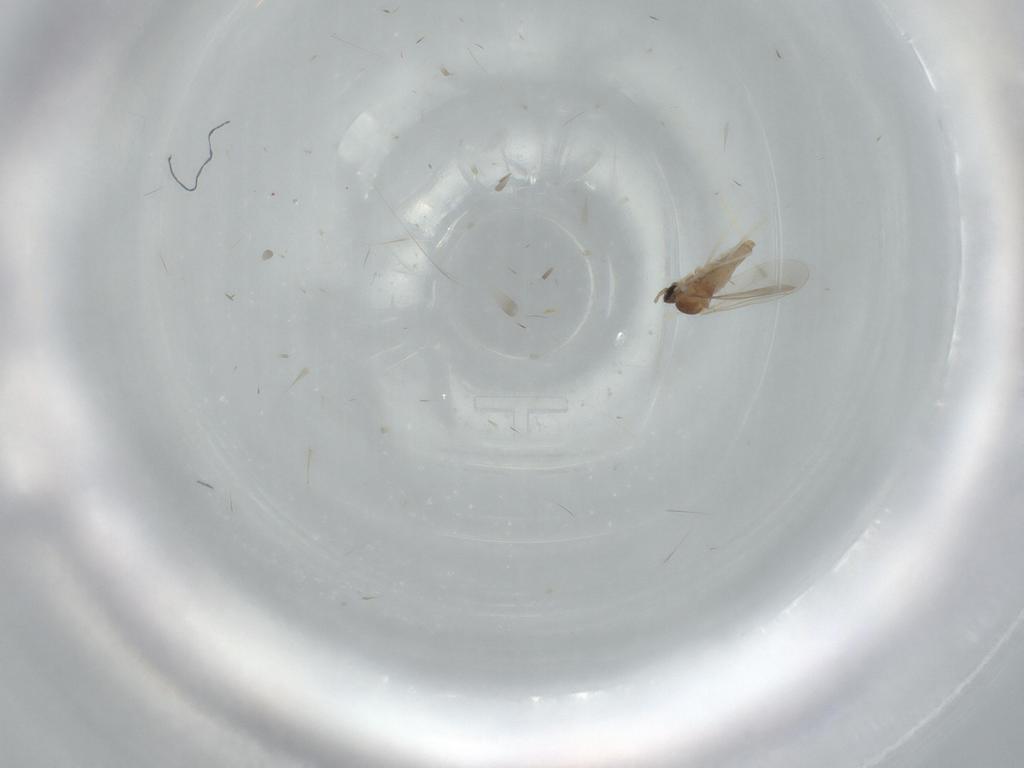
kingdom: Animalia
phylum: Arthropoda
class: Insecta
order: Diptera
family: Cecidomyiidae
